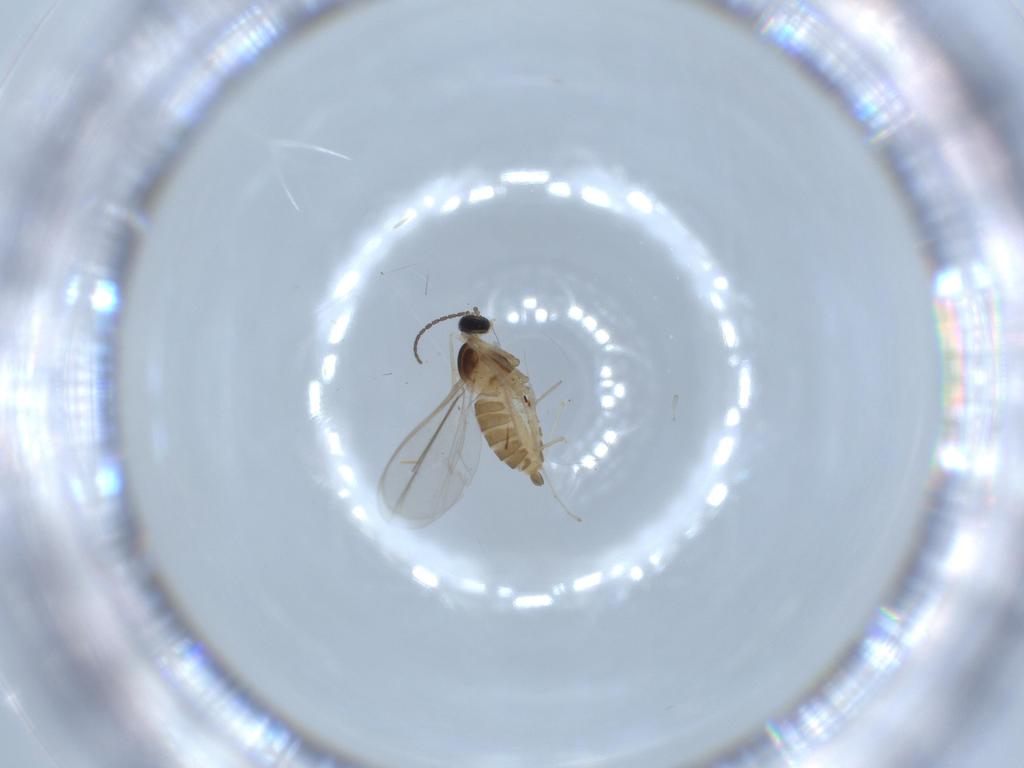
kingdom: Animalia
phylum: Arthropoda
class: Insecta
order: Diptera
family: Cecidomyiidae
